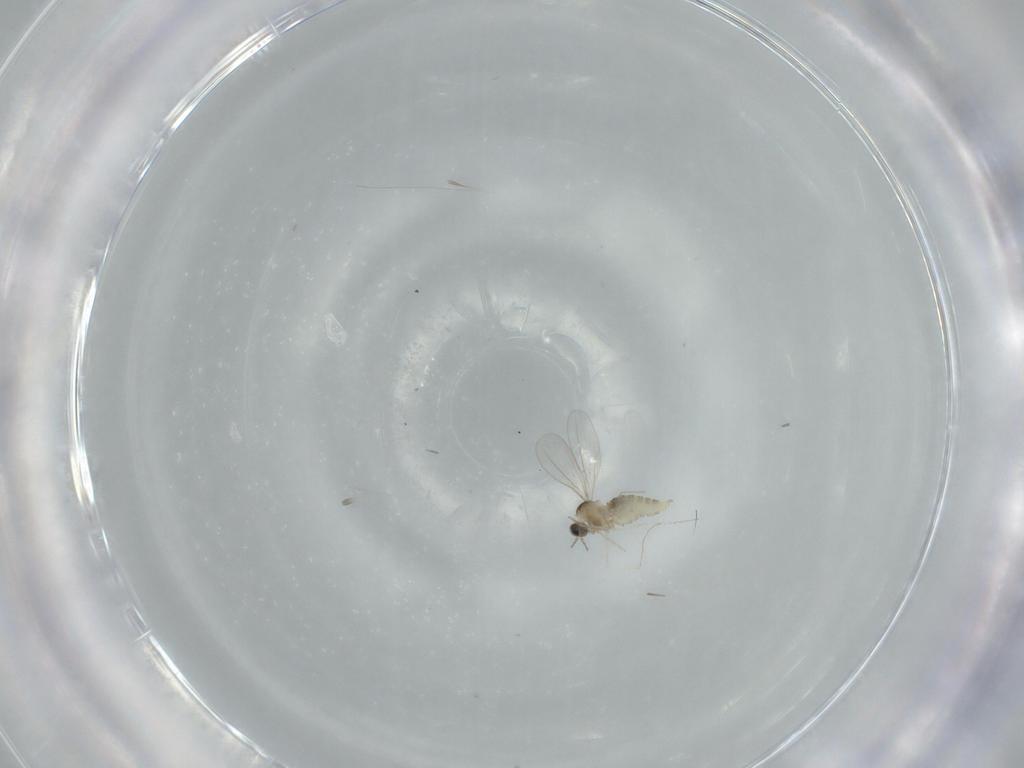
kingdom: Animalia
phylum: Arthropoda
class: Insecta
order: Diptera
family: Cecidomyiidae
